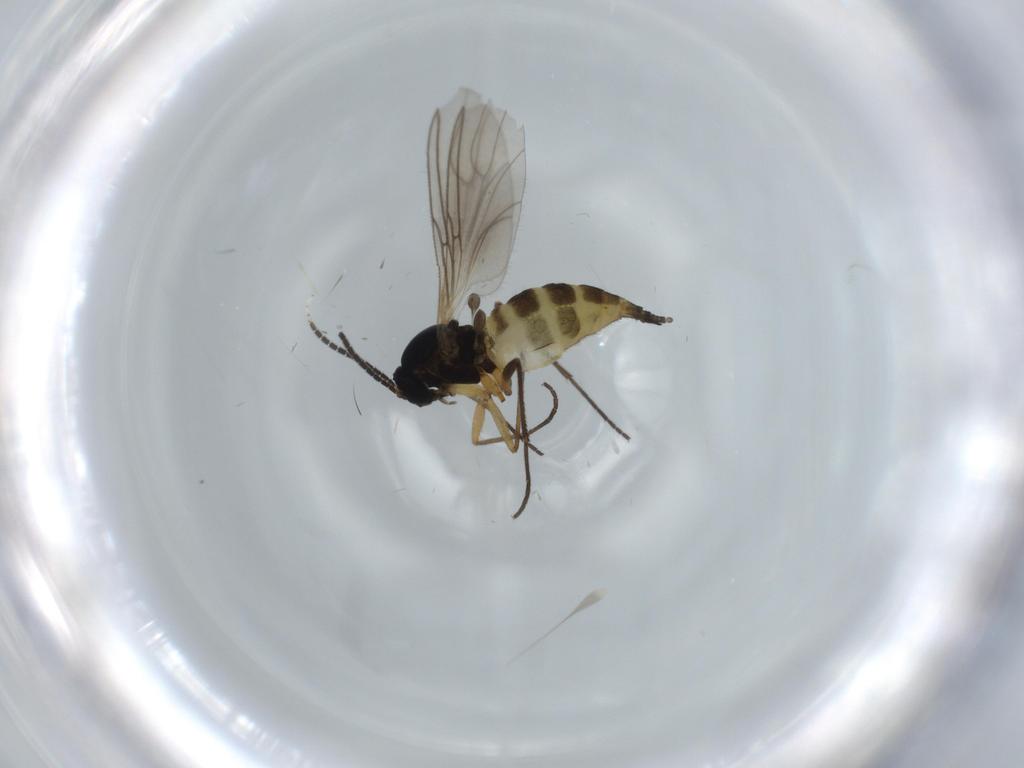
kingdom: Animalia
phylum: Arthropoda
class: Insecta
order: Diptera
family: Sciaridae
